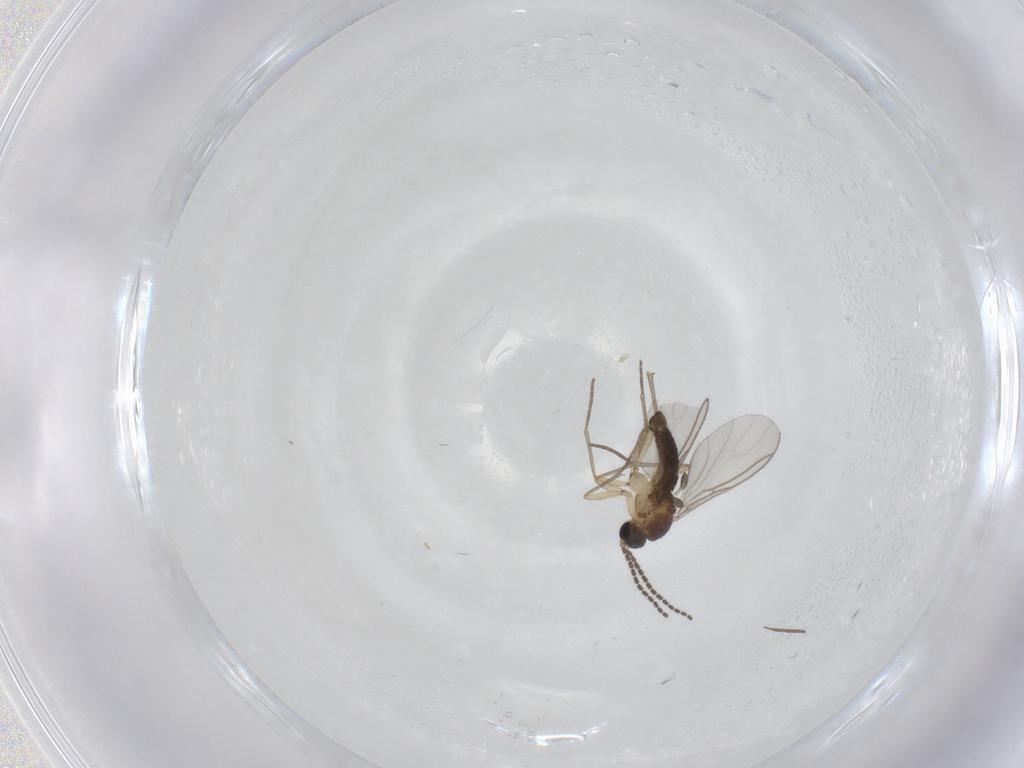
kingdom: Animalia
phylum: Arthropoda
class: Insecta
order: Diptera
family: Sciaridae
